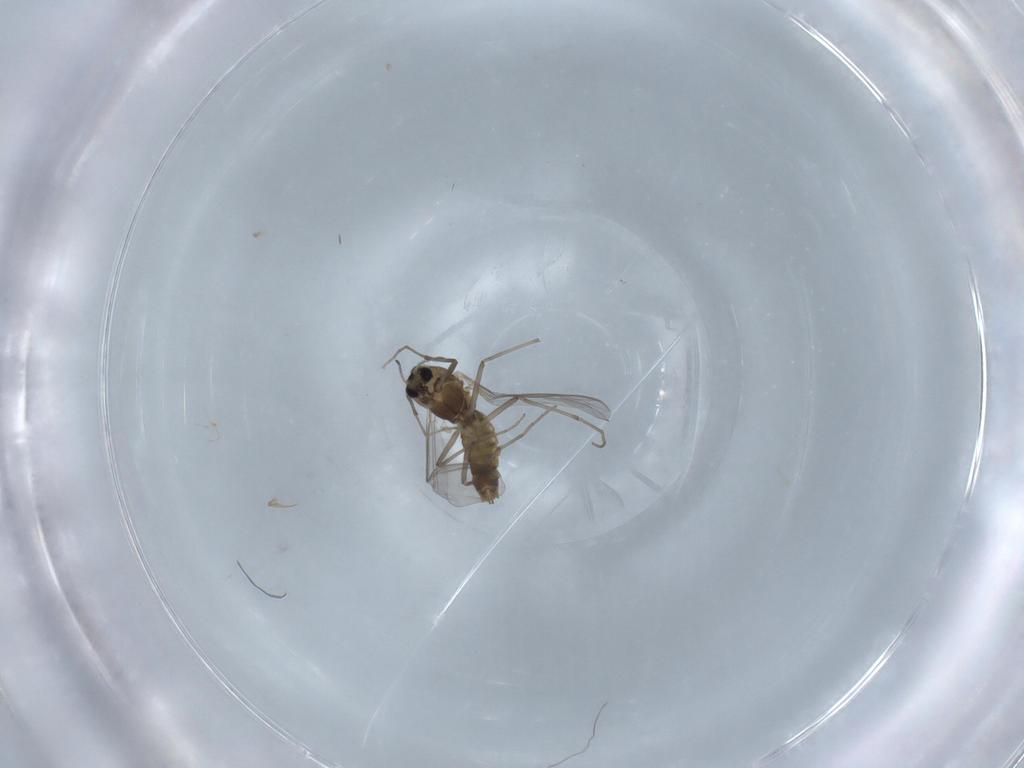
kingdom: Animalia
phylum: Arthropoda
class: Insecta
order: Diptera
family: Chironomidae
